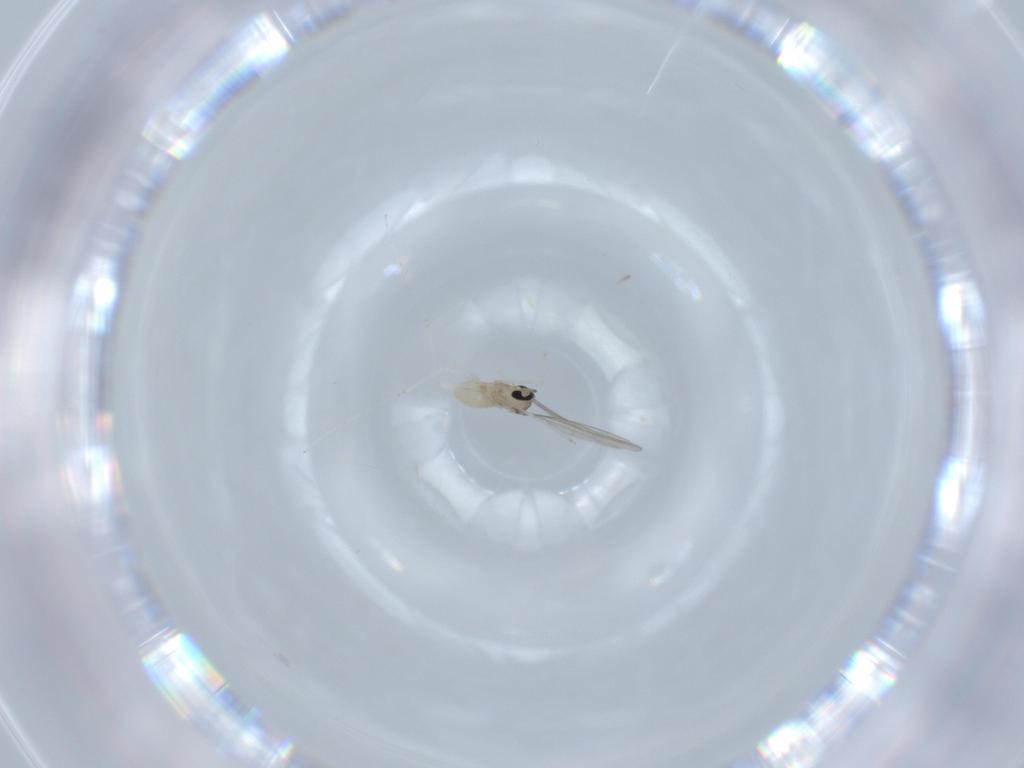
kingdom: Animalia
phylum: Arthropoda
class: Insecta
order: Diptera
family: Cecidomyiidae
